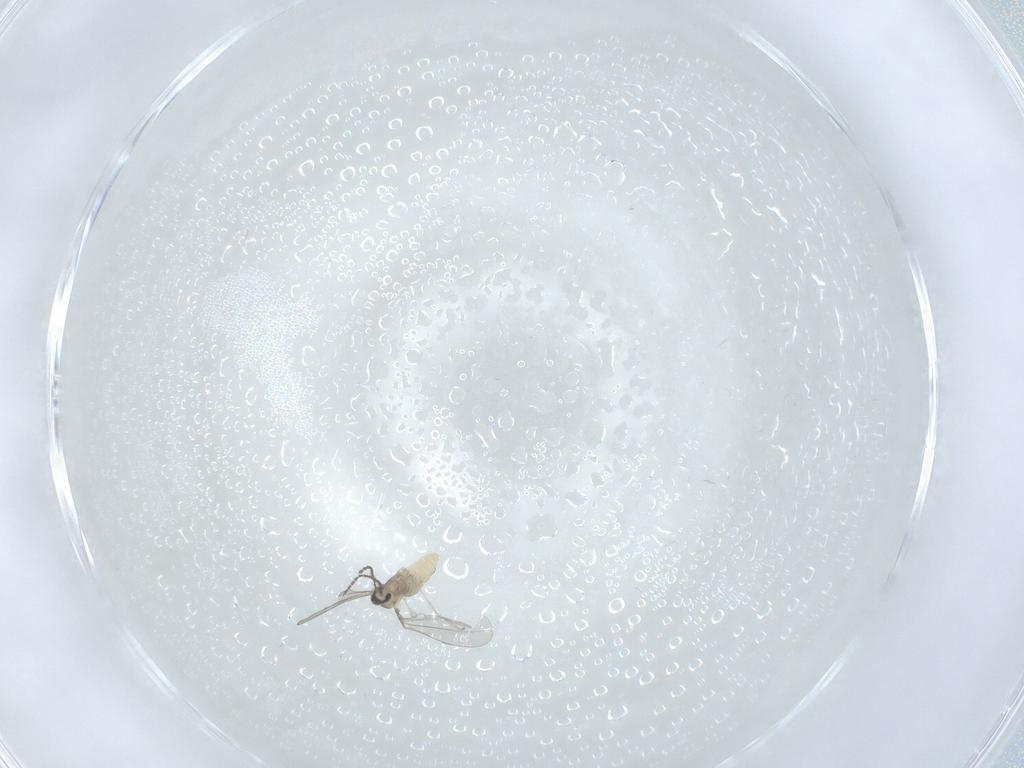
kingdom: Animalia
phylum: Arthropoda
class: Insecta
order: Diptera
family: Cecidomyiidae
